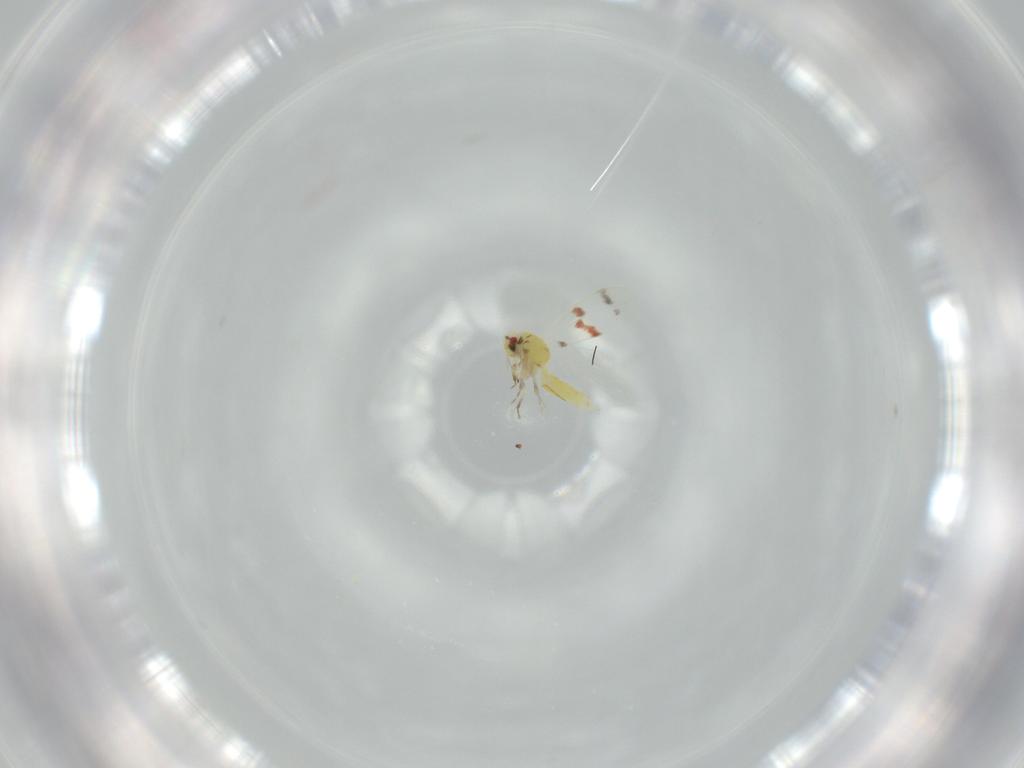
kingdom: Animalia
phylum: Arthropoda
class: Insecta
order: Hemiptera
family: Aleyrodidae
